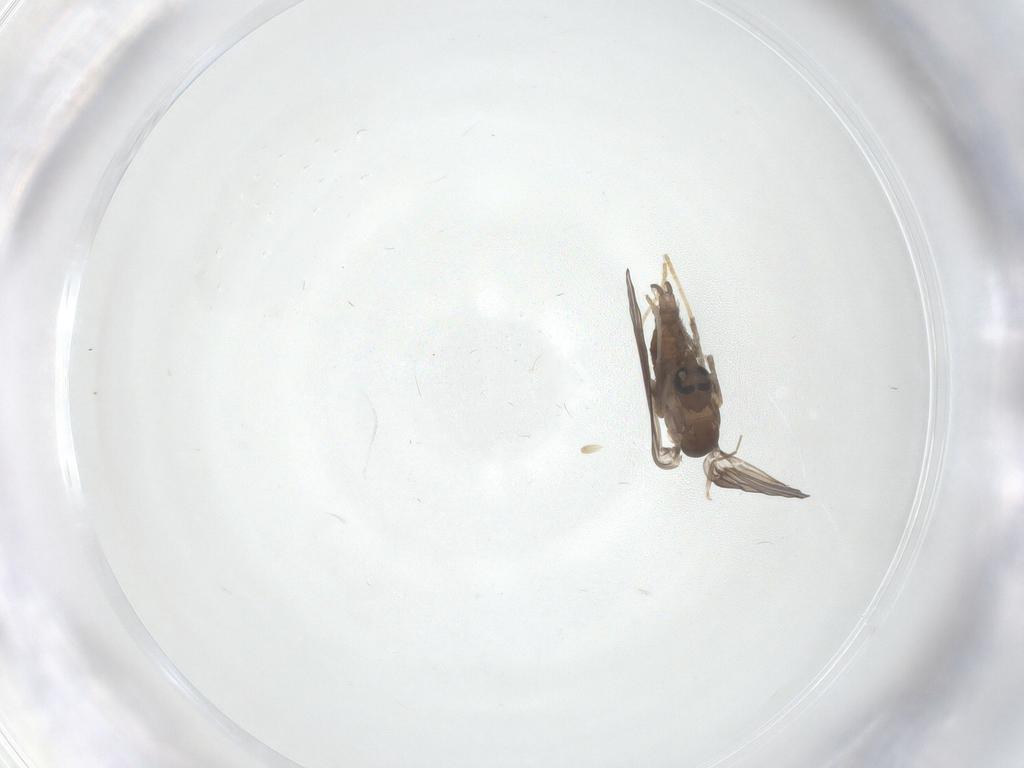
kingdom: Animalia
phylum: Arthropoda
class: Insecta
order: Diptera
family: Psychodidae
